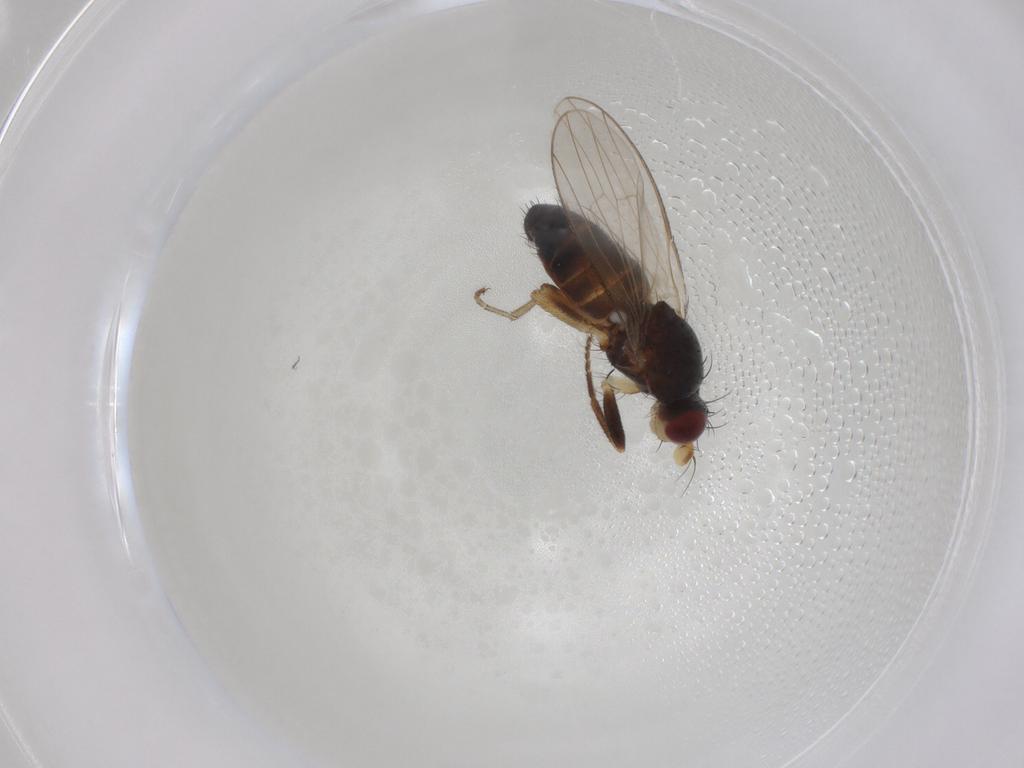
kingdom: Animalia
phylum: Arthropoda
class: Insecta
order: Diptera
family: Heleomyzidae
